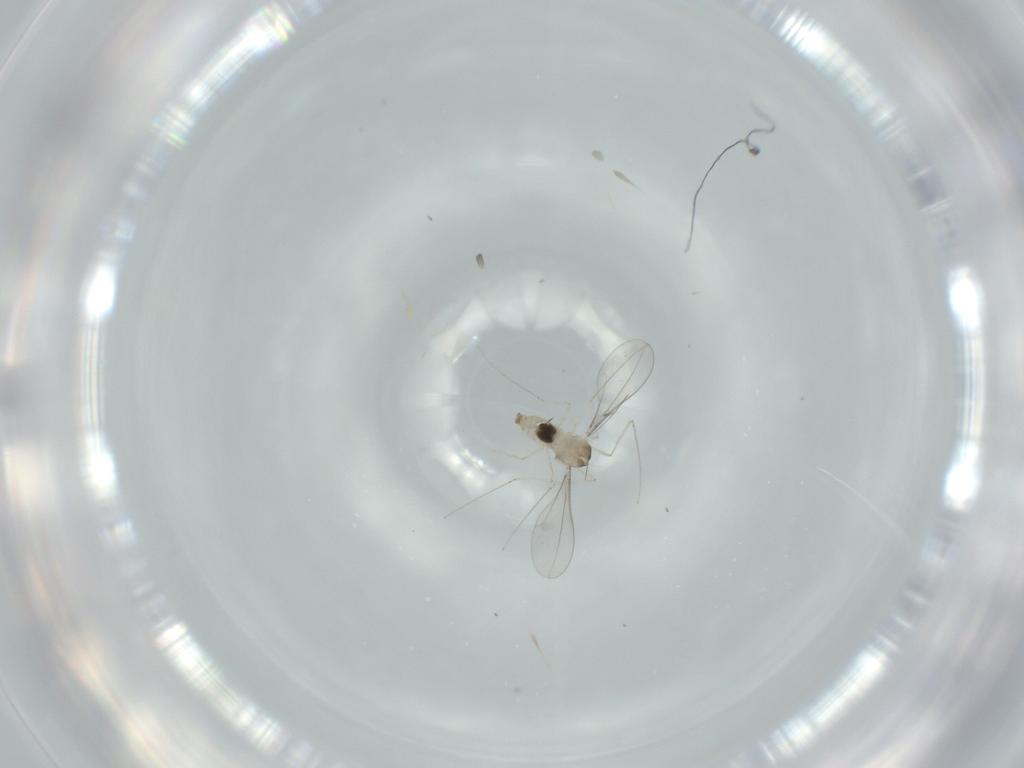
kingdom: Animalia
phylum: Arthropoda
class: Insecta
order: Diptera
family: Cecidomyiidae
